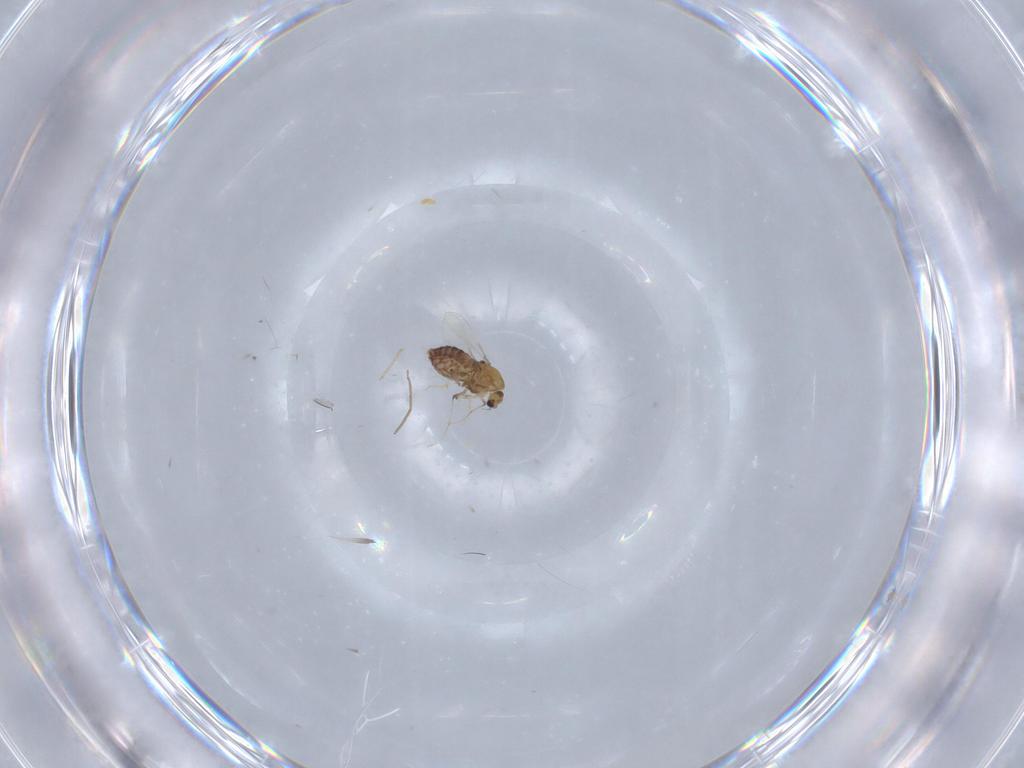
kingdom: Animalia
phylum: Arthropoda
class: Insecta
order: Diptera
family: Chironomidae
